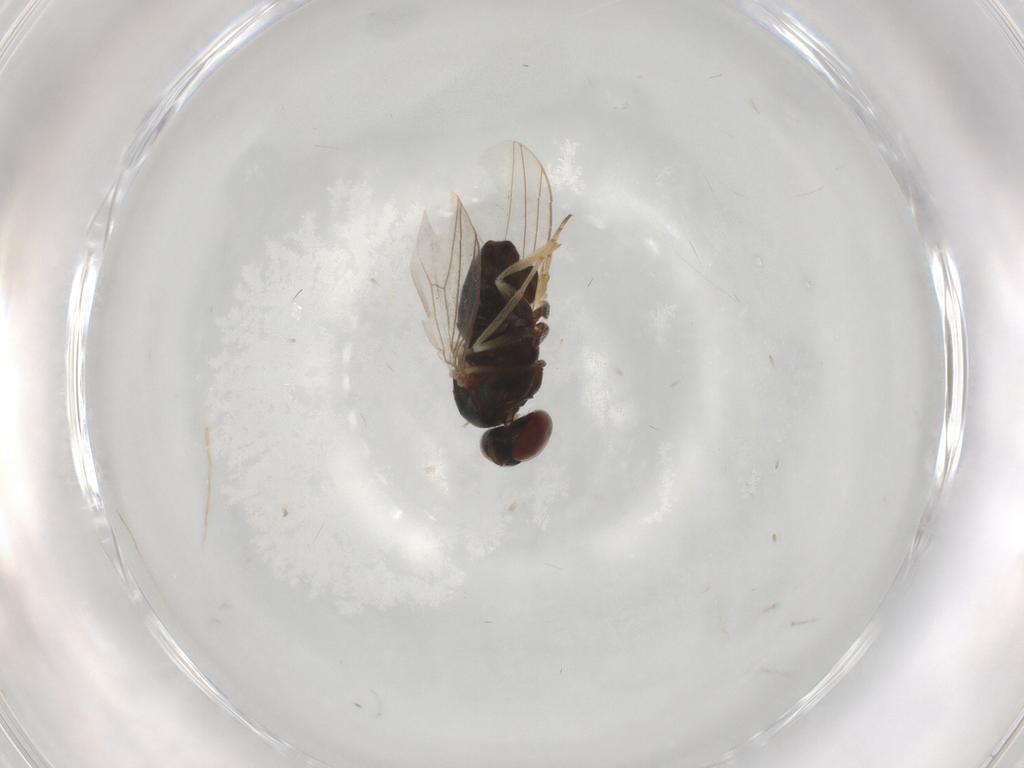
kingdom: Animalia
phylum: Arthropoda
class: Insecta
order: Diptera
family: Dolichopodidae
